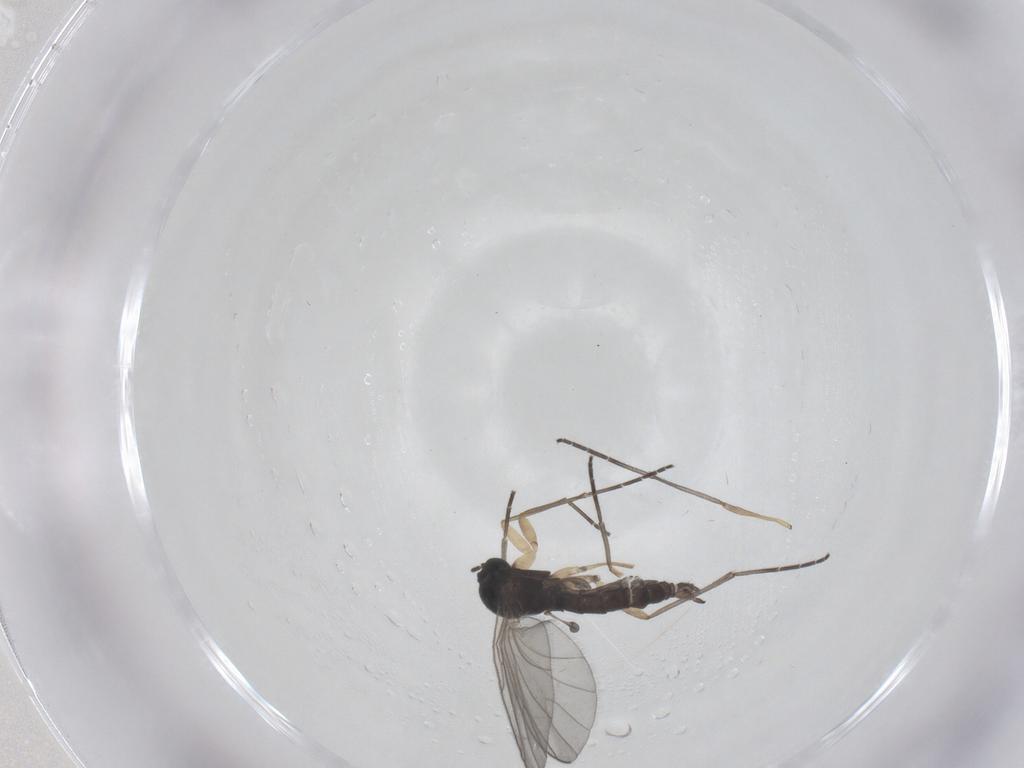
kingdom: Animalia
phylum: Arthropoda
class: Insecta
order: Diptera
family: Sciaridae
